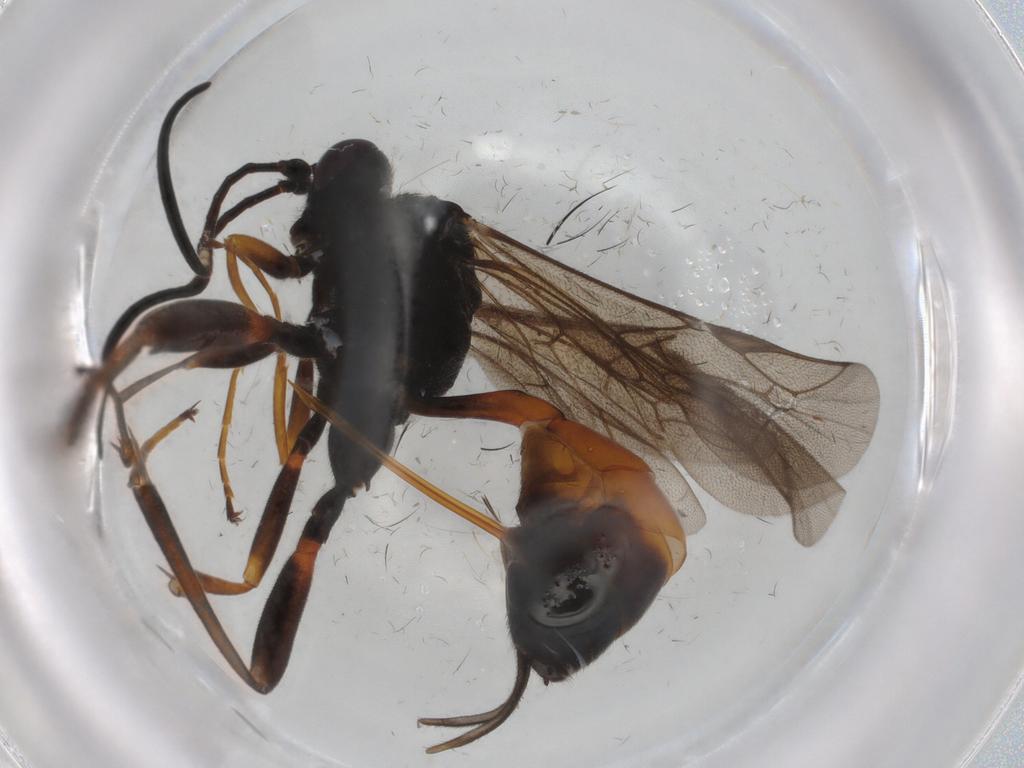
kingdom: Animalia
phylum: Arthropoda
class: Insecta
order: Hymenoptera
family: Ichneumonidae
